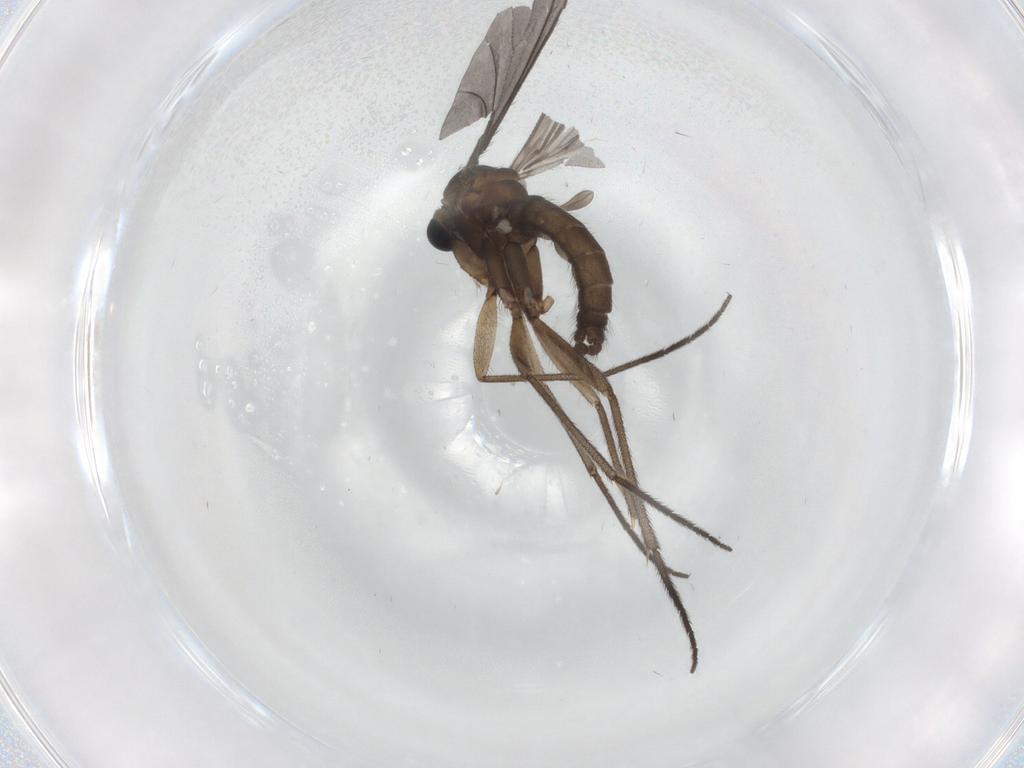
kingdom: Animalia
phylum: Arthropoda
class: Insecta
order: Diptera
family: Sciaridae
